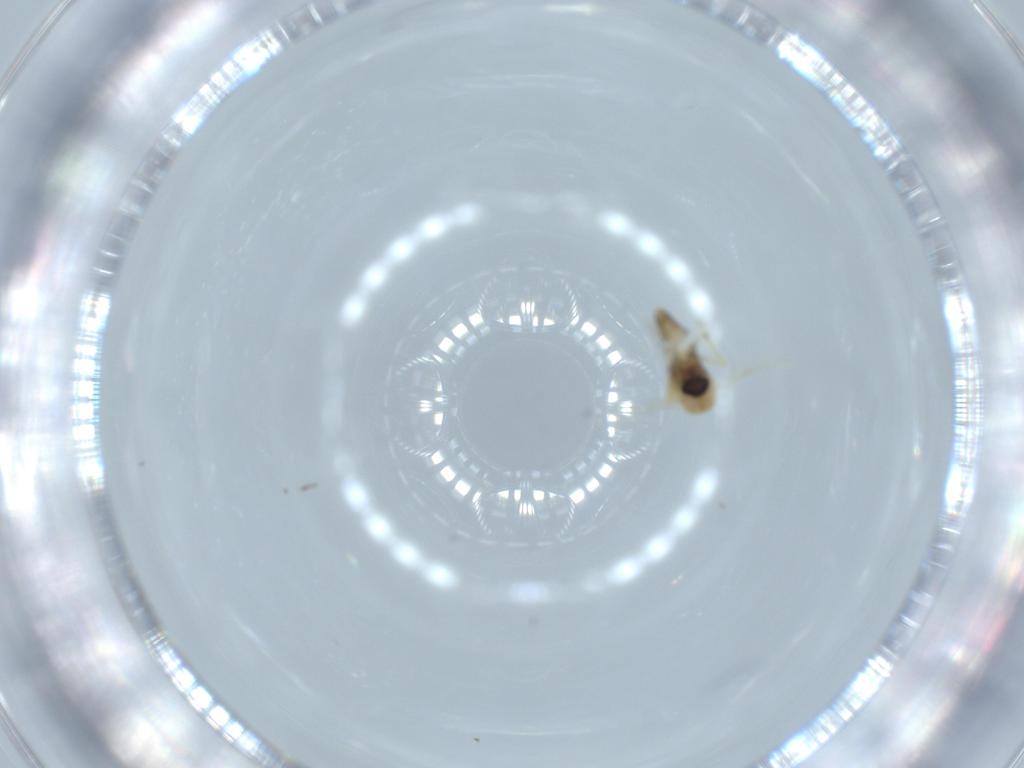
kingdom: Animalia
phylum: Arthropoda
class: Insecta
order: Diptera
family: Ceratopogonidae
